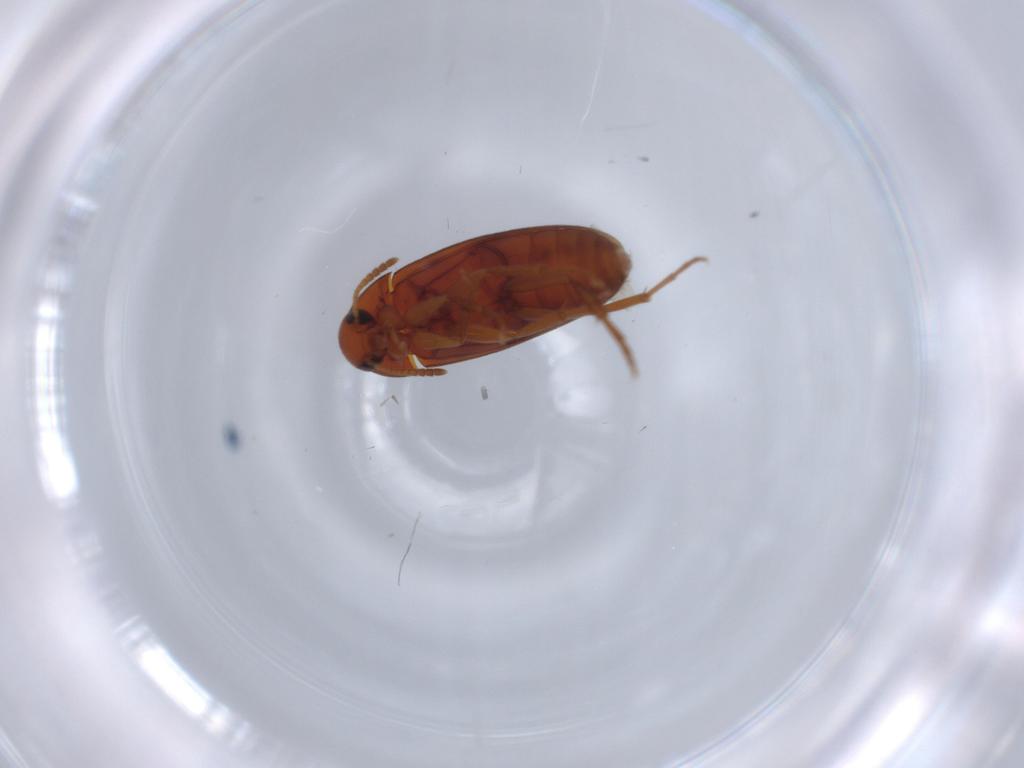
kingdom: Animalia
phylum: Arthropoda
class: Insecta
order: Coleoptera
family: Scraptiidae
